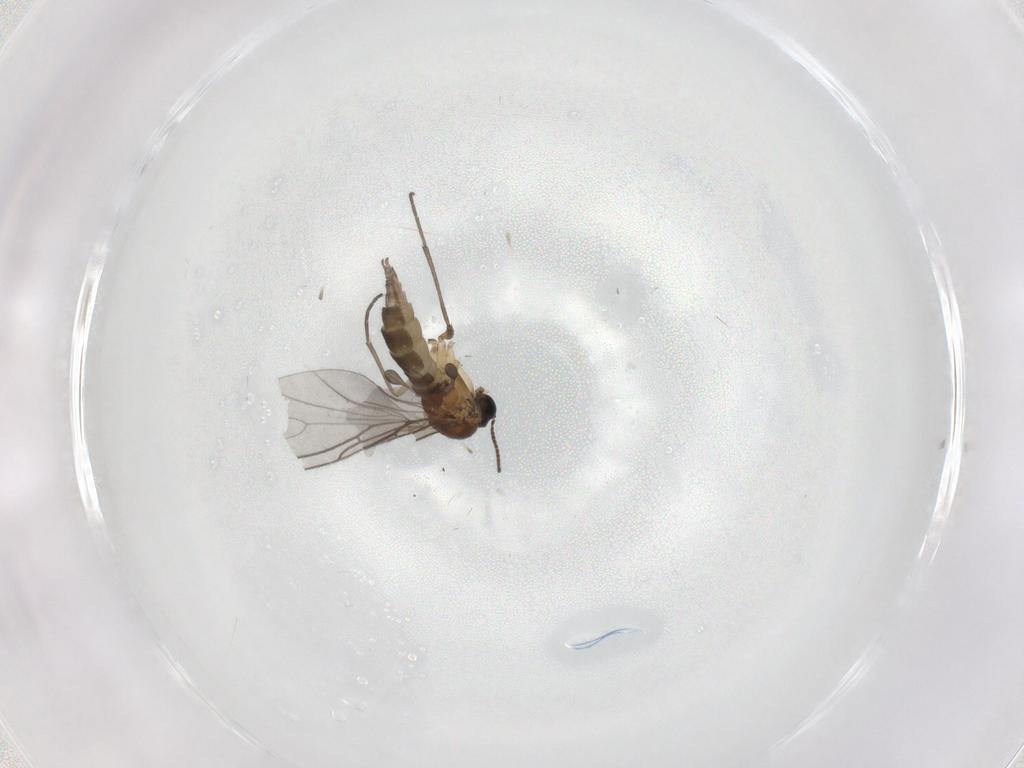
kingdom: Animalia
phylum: Arthropoda
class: Insecta
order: Diptera
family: Sciaridae
